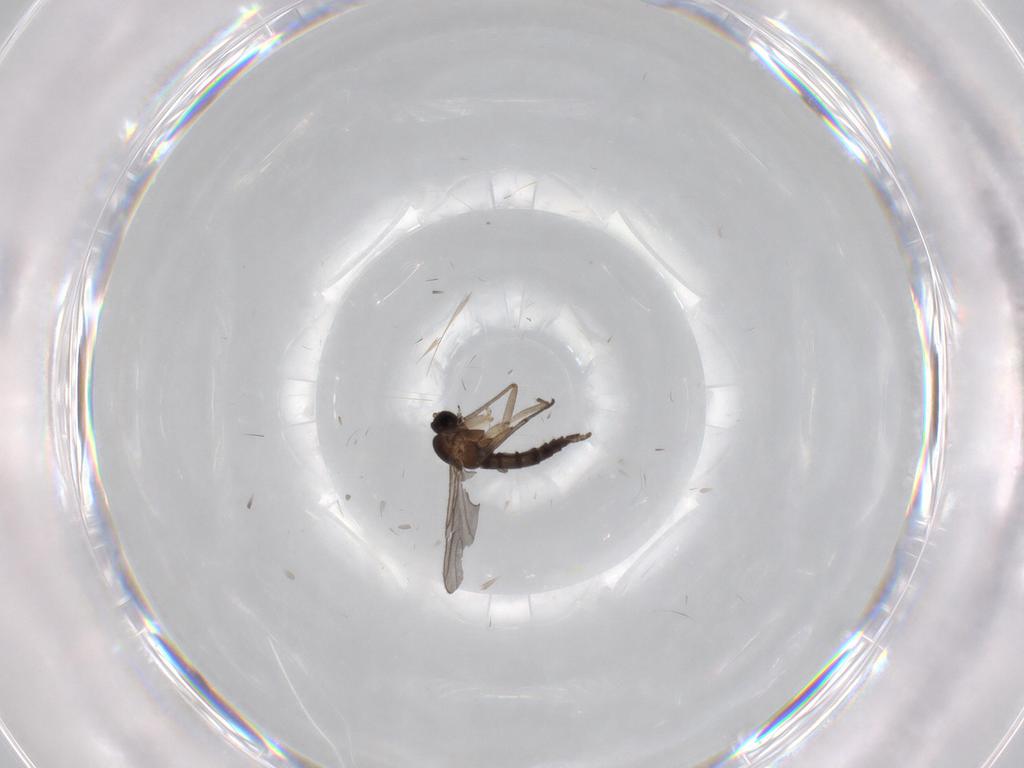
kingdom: Animalia
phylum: Arthropoda
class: Insecta
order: Diptera
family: Sciaridae
